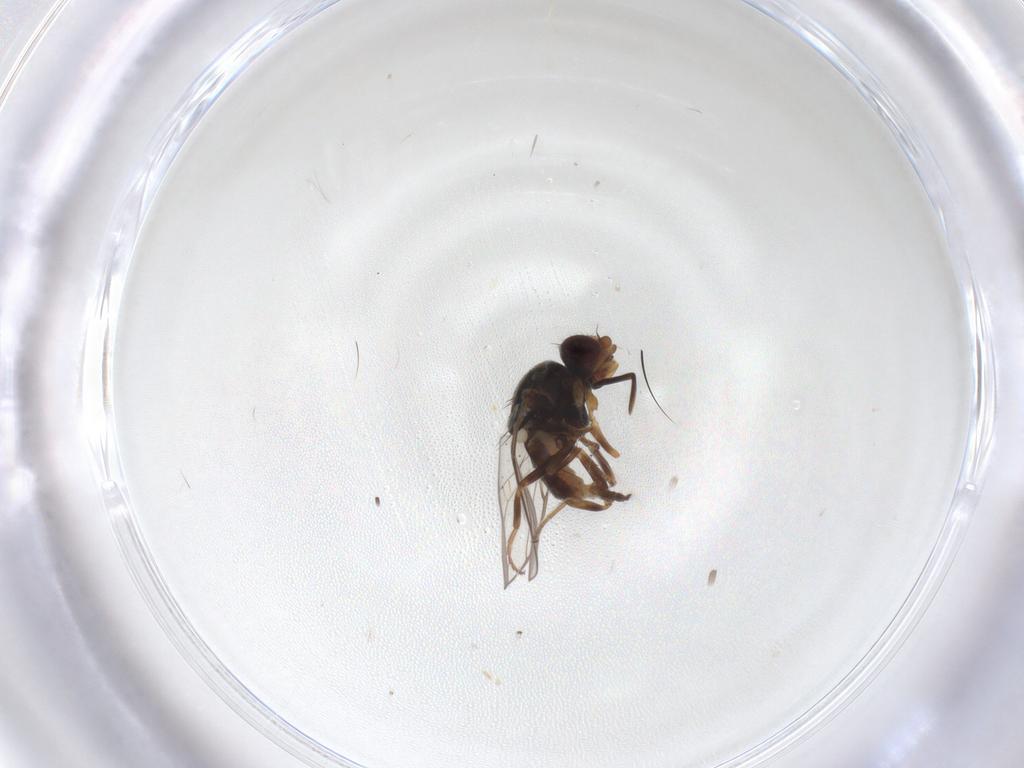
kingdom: Animalia
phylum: Arthropoda
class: Insecta
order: Diptera
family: Chloropidae
